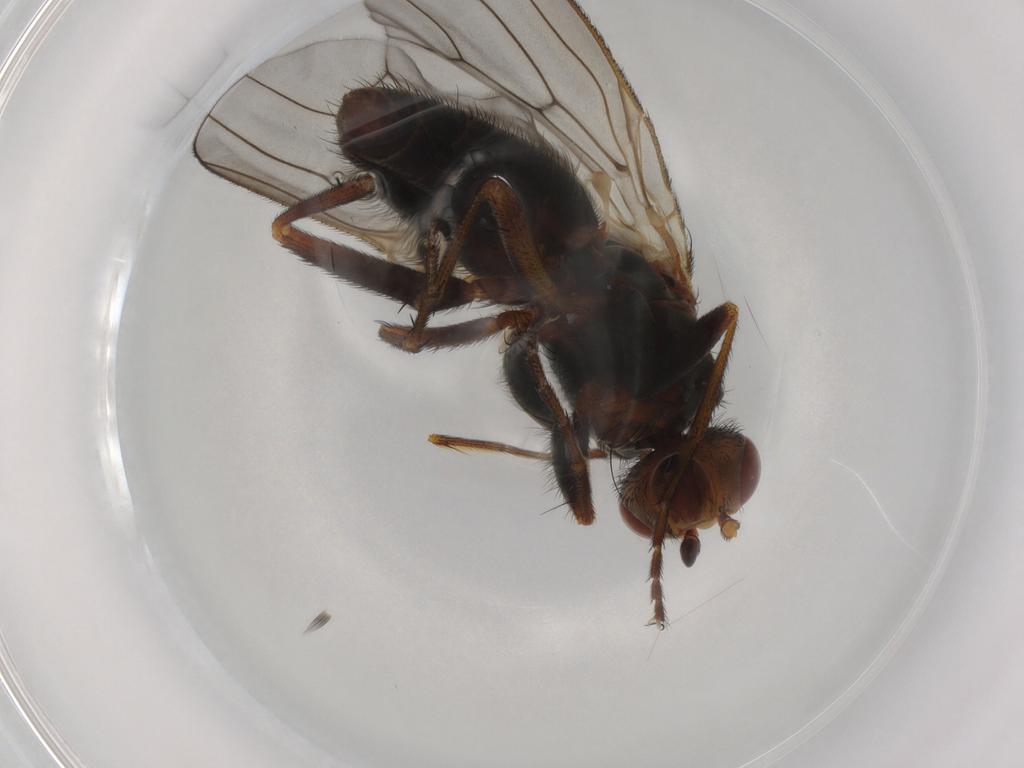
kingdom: Animalia
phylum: Arthropoda
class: Insecta
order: Diptera
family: Heleomyzidae
